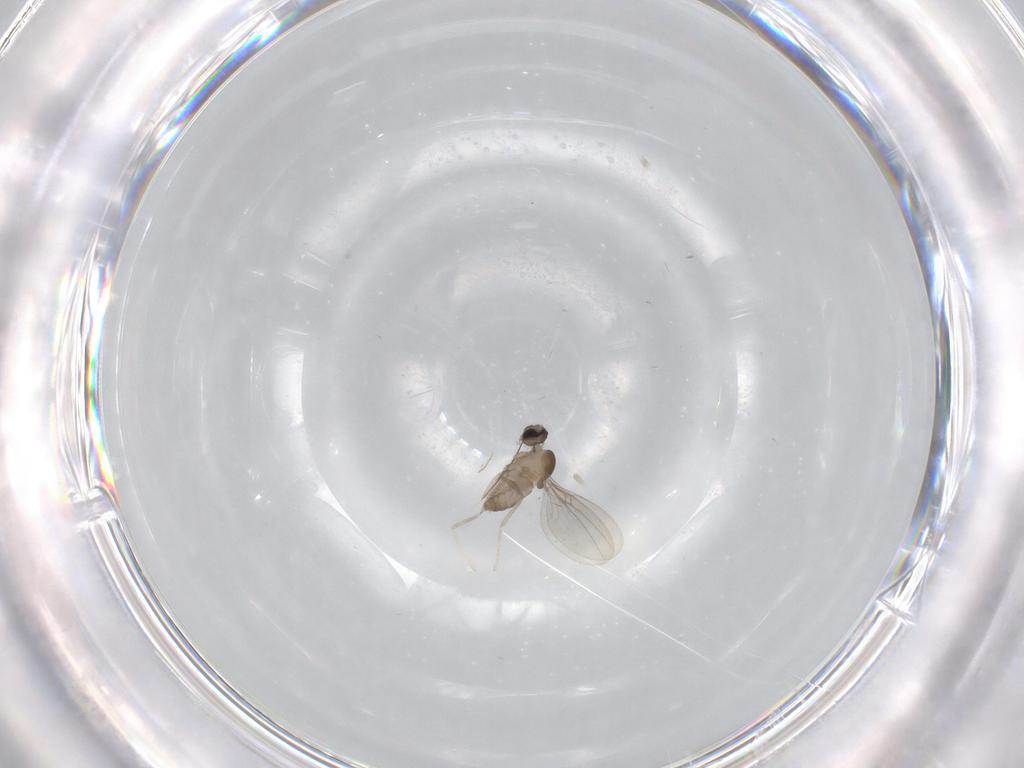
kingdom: Animalia
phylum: Arthropoda
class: Insecta
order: Diptera
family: Cecidomyiidae
